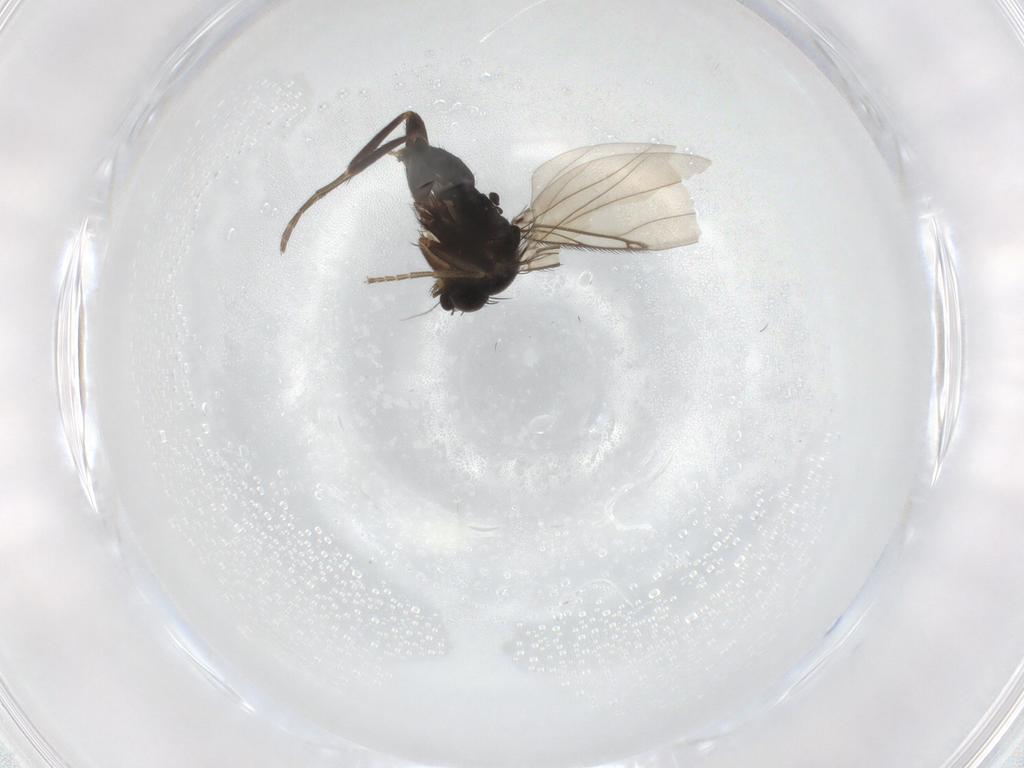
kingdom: Animalia
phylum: Arthropoda
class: Insecta
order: Diptera
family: Phoridae
